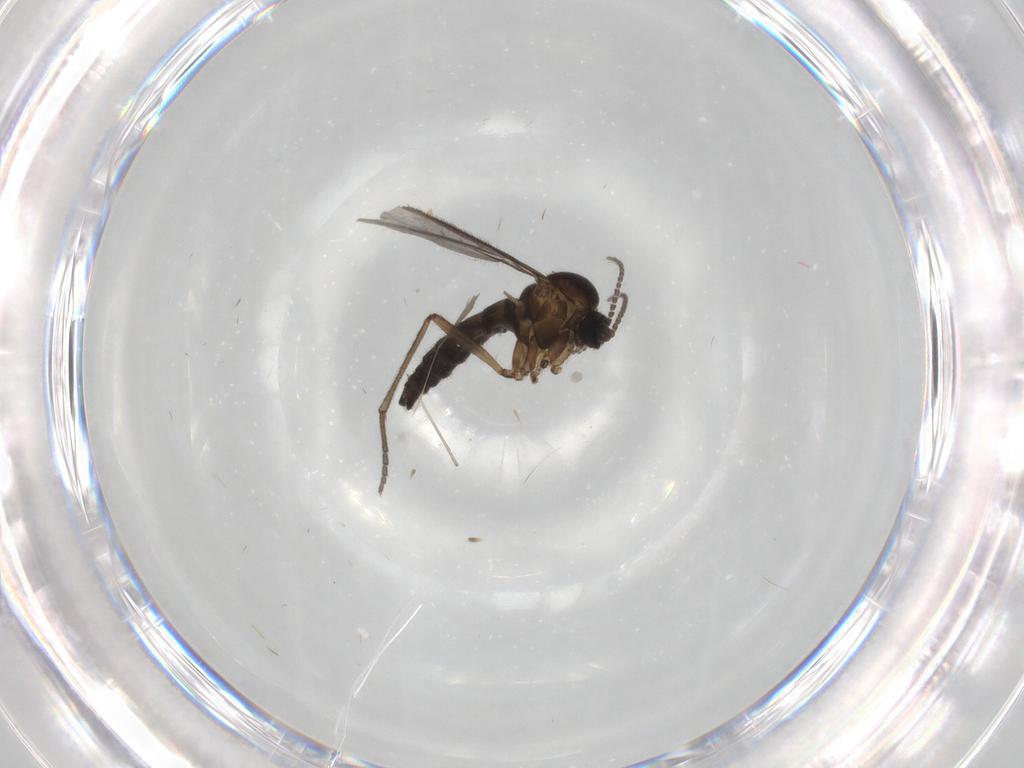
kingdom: Animalia
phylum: Arthropoda
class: Insecta
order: Diptera
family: Sciaridae
